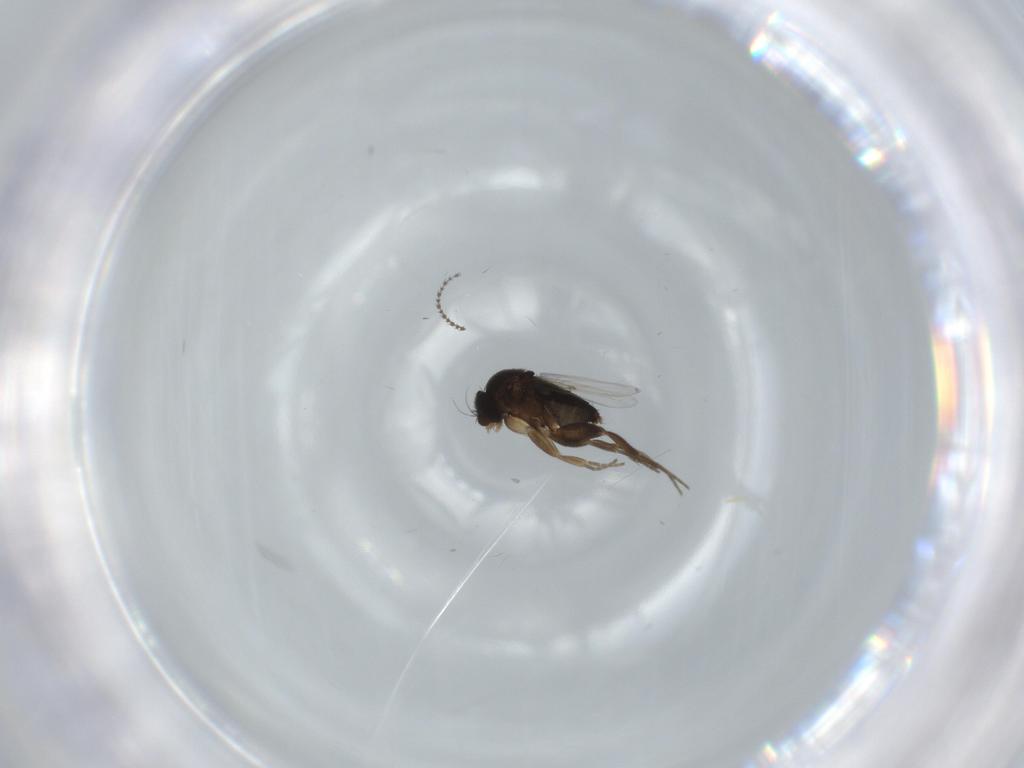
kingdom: Animalia
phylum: Arthropoda
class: Insecta
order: Diptera
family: Phoridae
